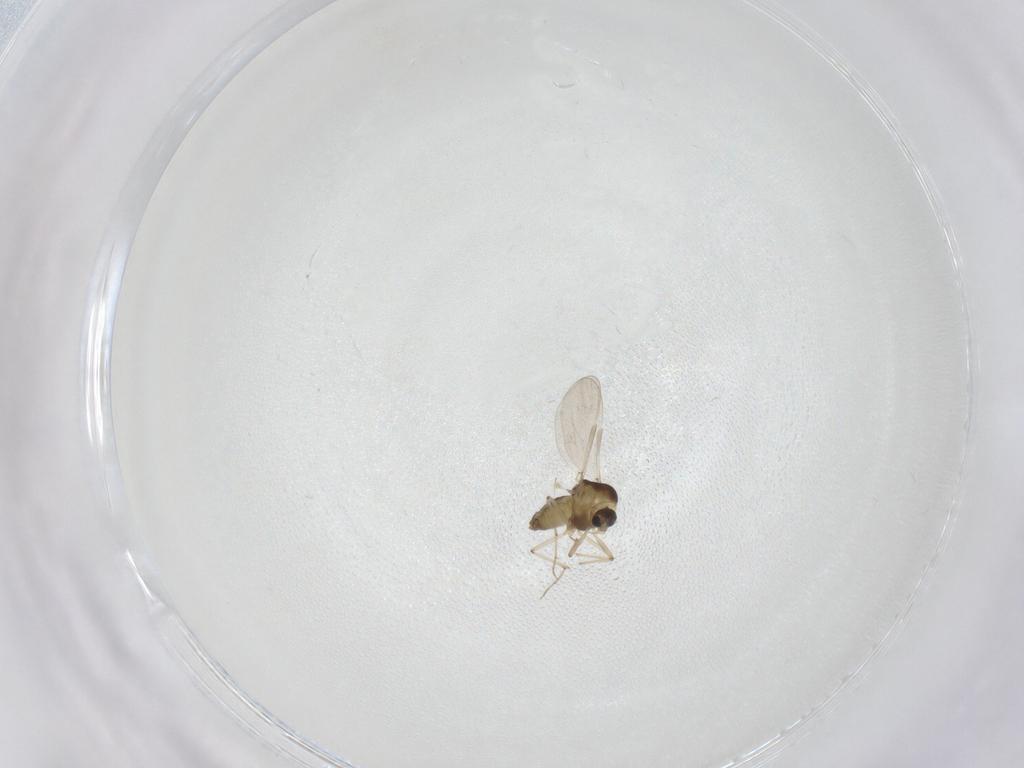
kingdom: Animalia
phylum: Arthropoda
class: Insecta
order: Diptera
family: Chironomidae
